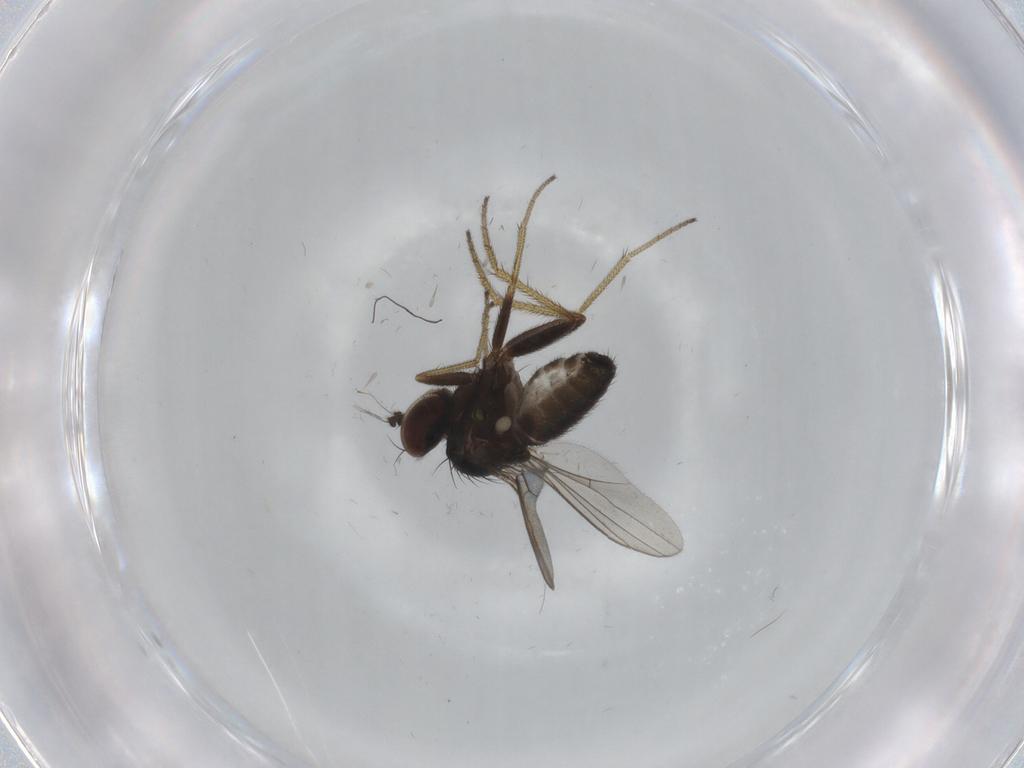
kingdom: Animalia
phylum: Arthropoda
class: Insecta
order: Diptera
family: Dolichopodidae
